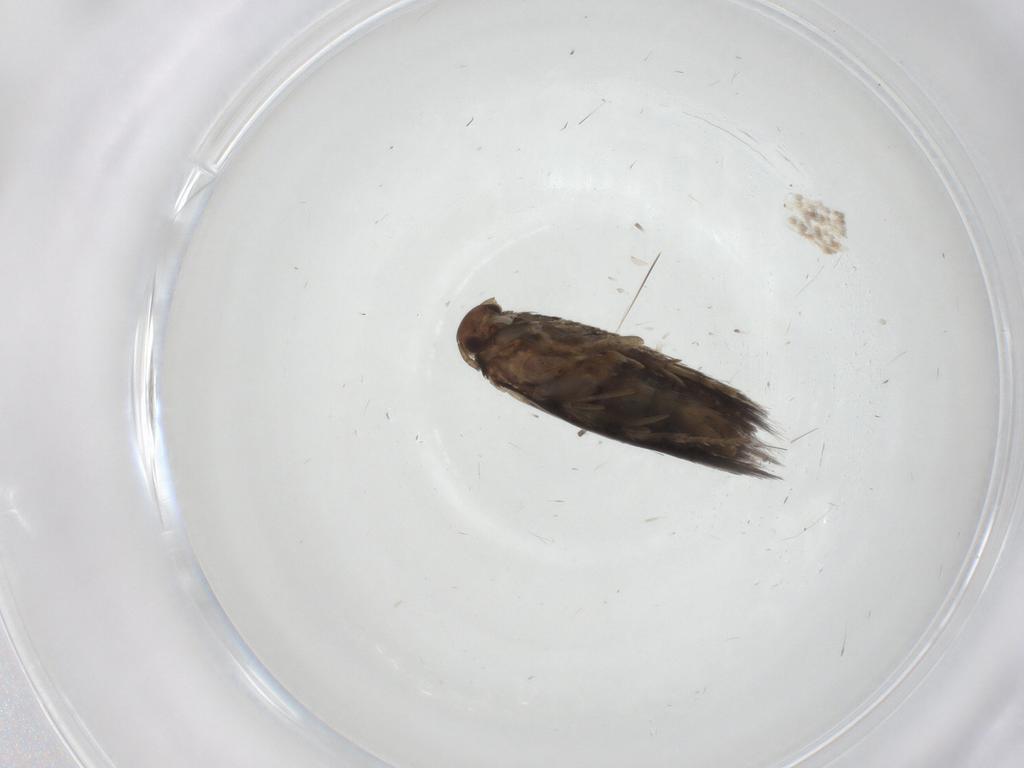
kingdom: Animalia
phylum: Arthropoda
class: Insecta
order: Lepidoptera
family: Elachistidae
